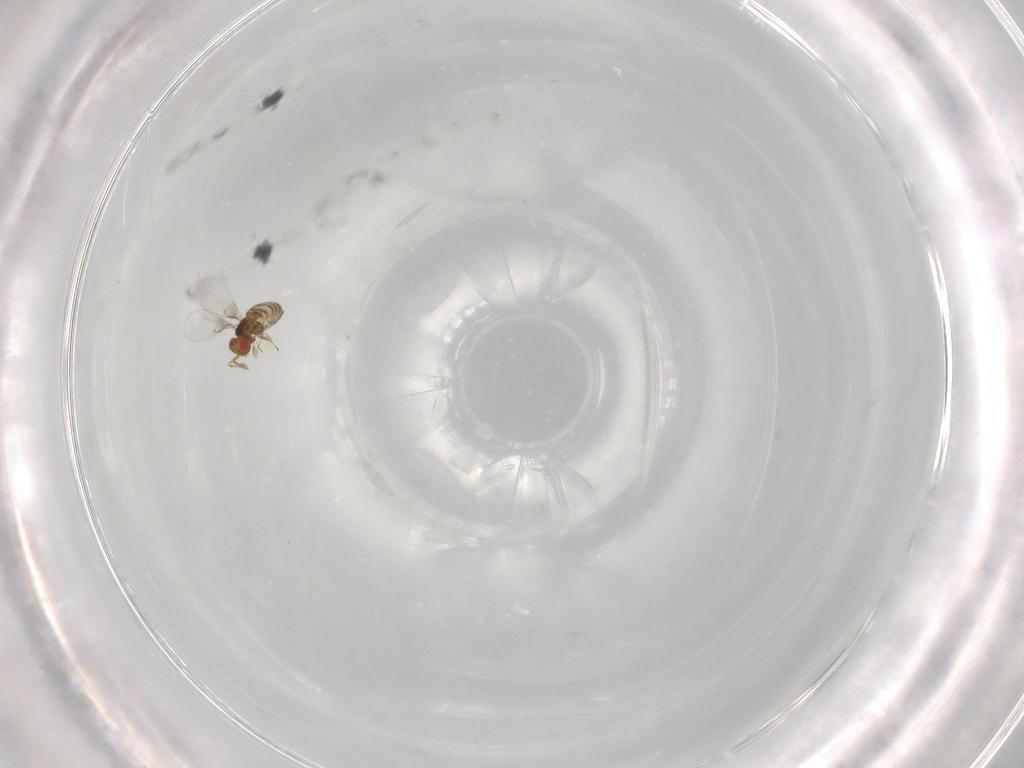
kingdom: Animalia
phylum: Arthropoda
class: Insecta
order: Hymenoptera
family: Trichogrammatidae
